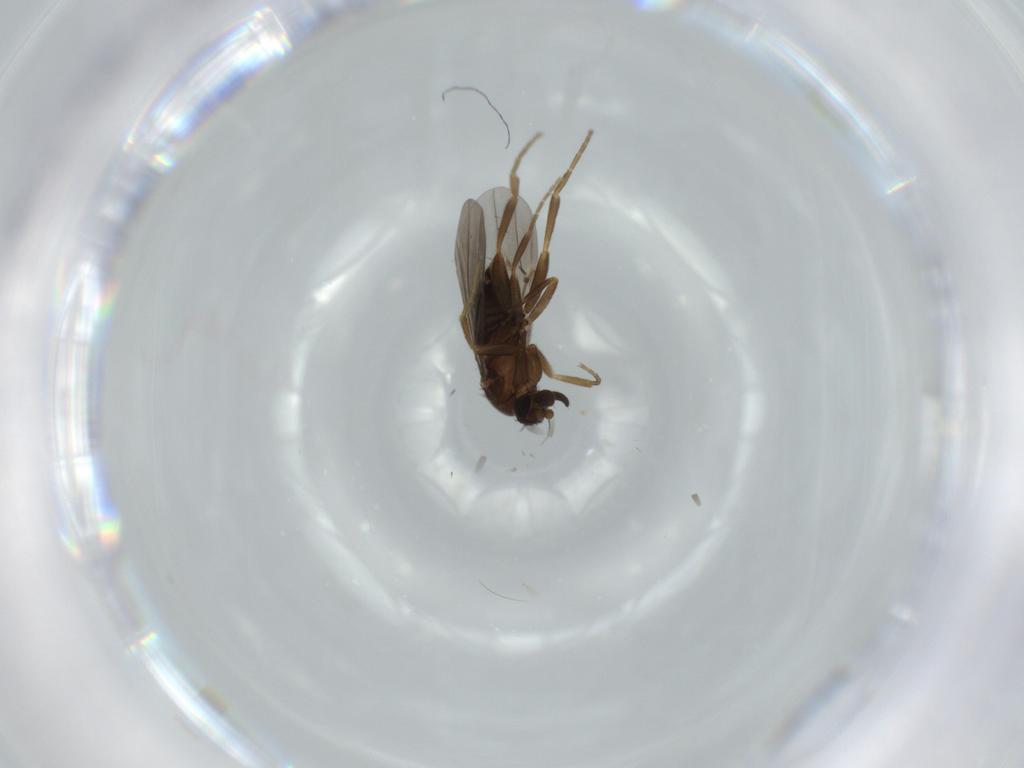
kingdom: Animalia
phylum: Arthropoda
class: Insecta
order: Diptera
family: Phoridae
